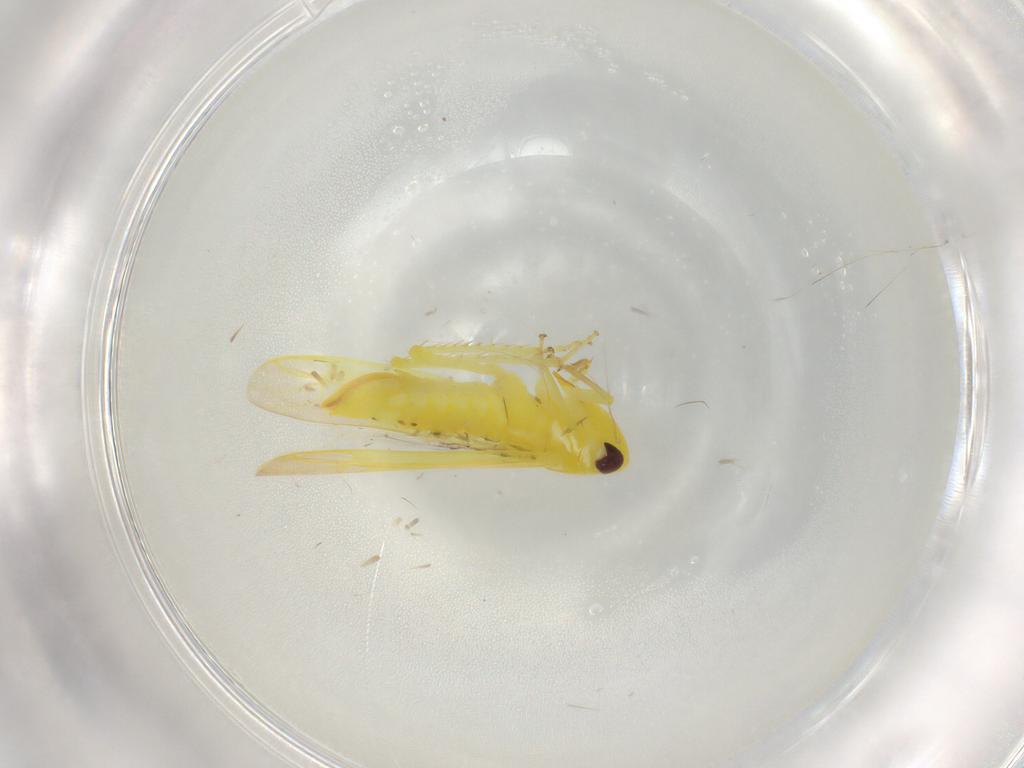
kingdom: Animalia
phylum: Arthropoda
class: Insecta
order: Hemiptera
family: Cicadellidae
